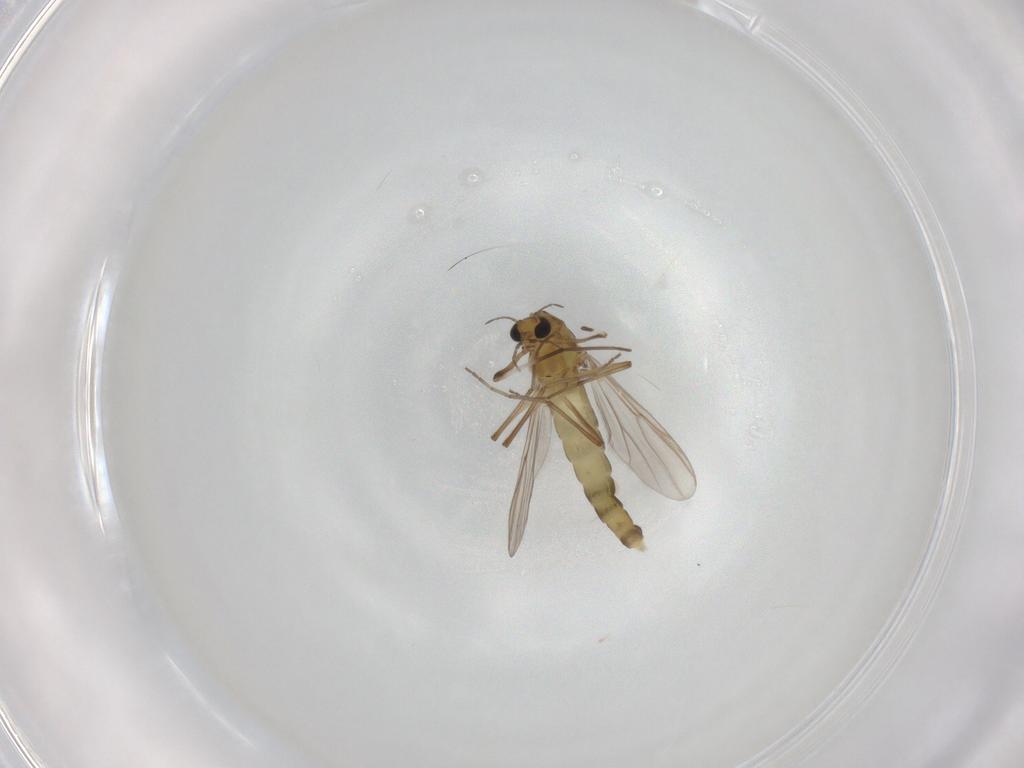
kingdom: Animalia
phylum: Arthropoda
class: Insecta
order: Diptera
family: Chironomidae
